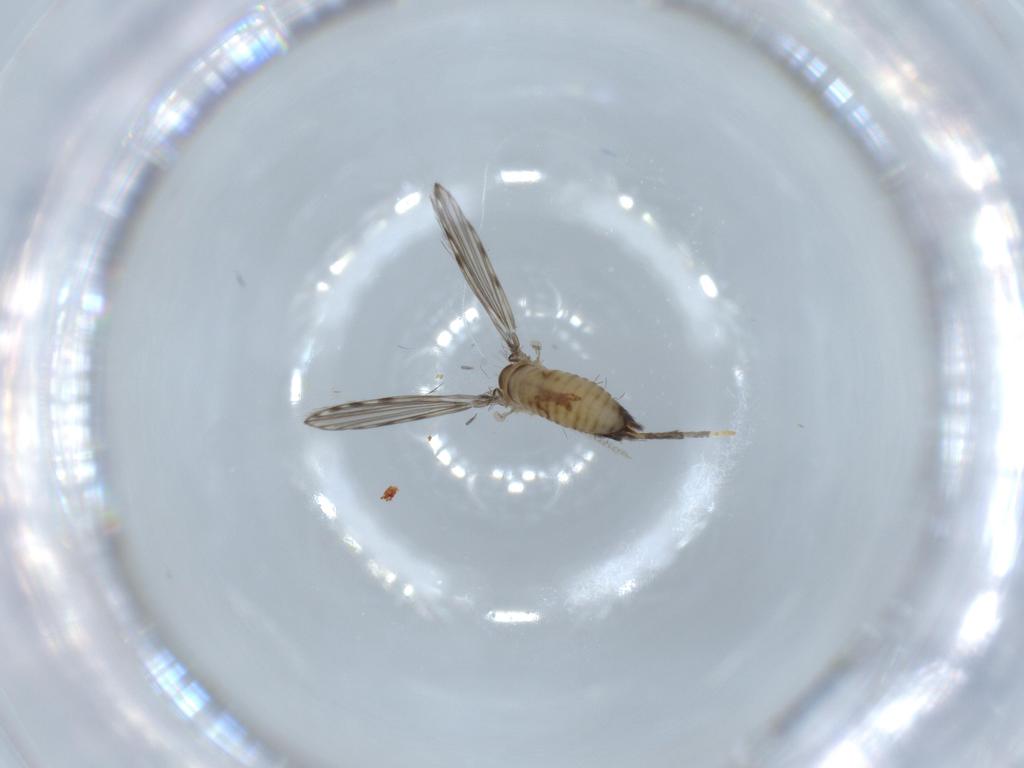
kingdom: Animalia
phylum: Arthropoda
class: Insecta
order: Diptera
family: Psychodidae
